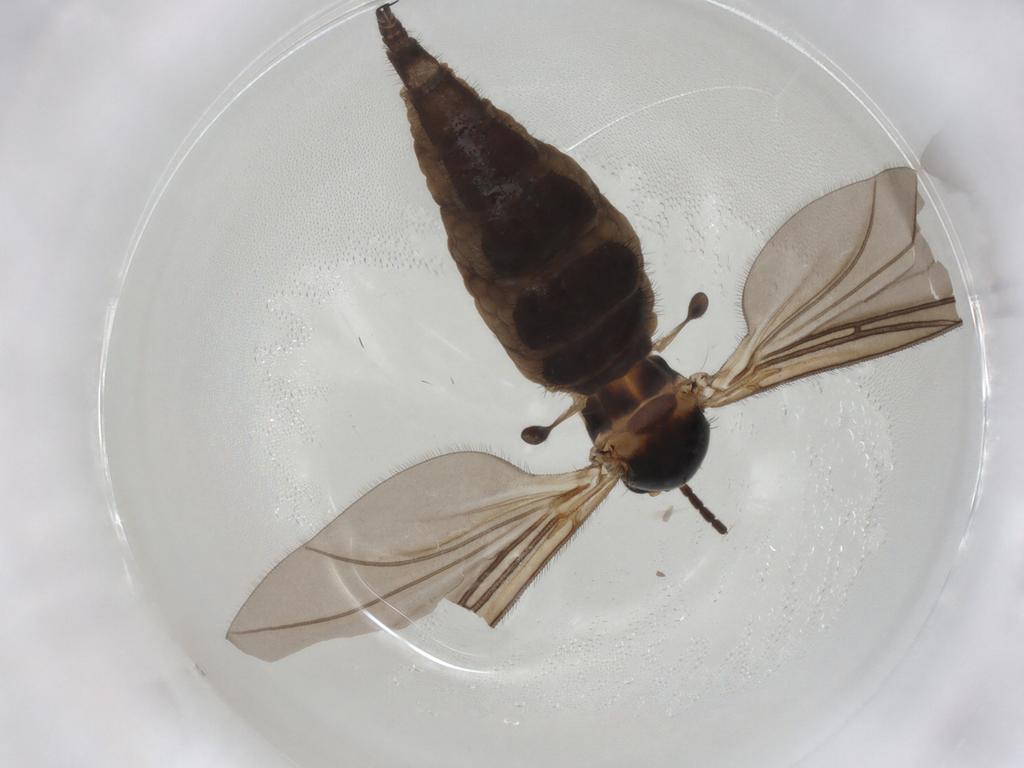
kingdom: Animalia
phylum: Arthropoda
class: Insecta
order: Diptera
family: Sciaridae
